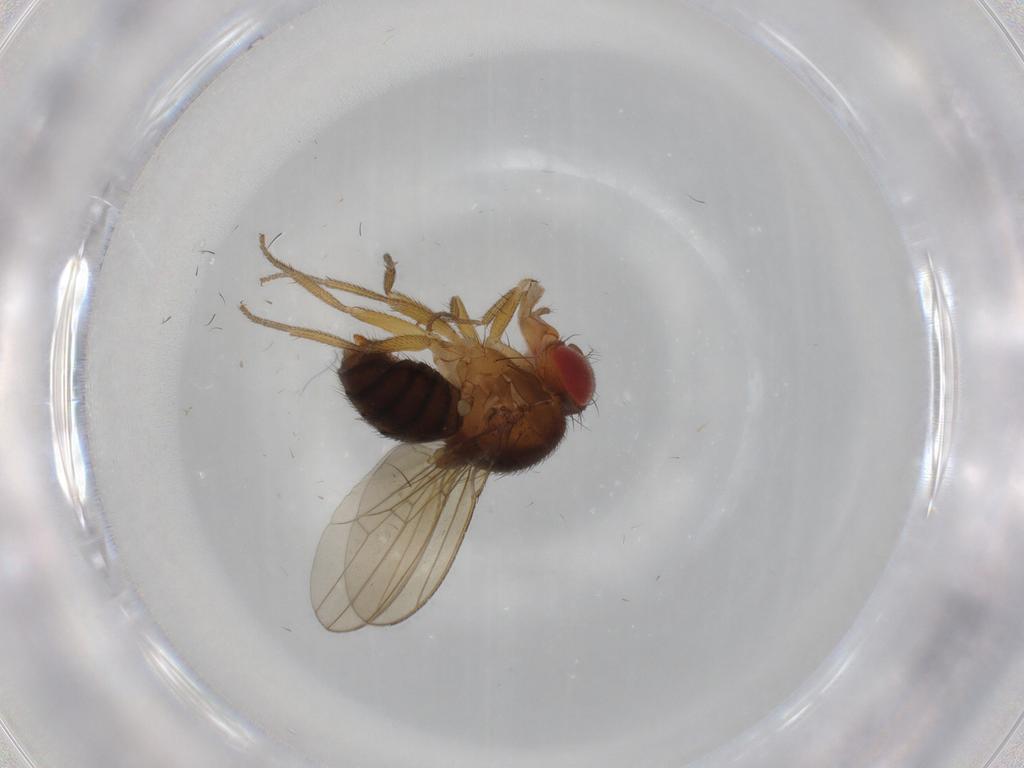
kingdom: Animalia
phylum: Arthropoda
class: Insecta
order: Diptera
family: Drosophilidae
